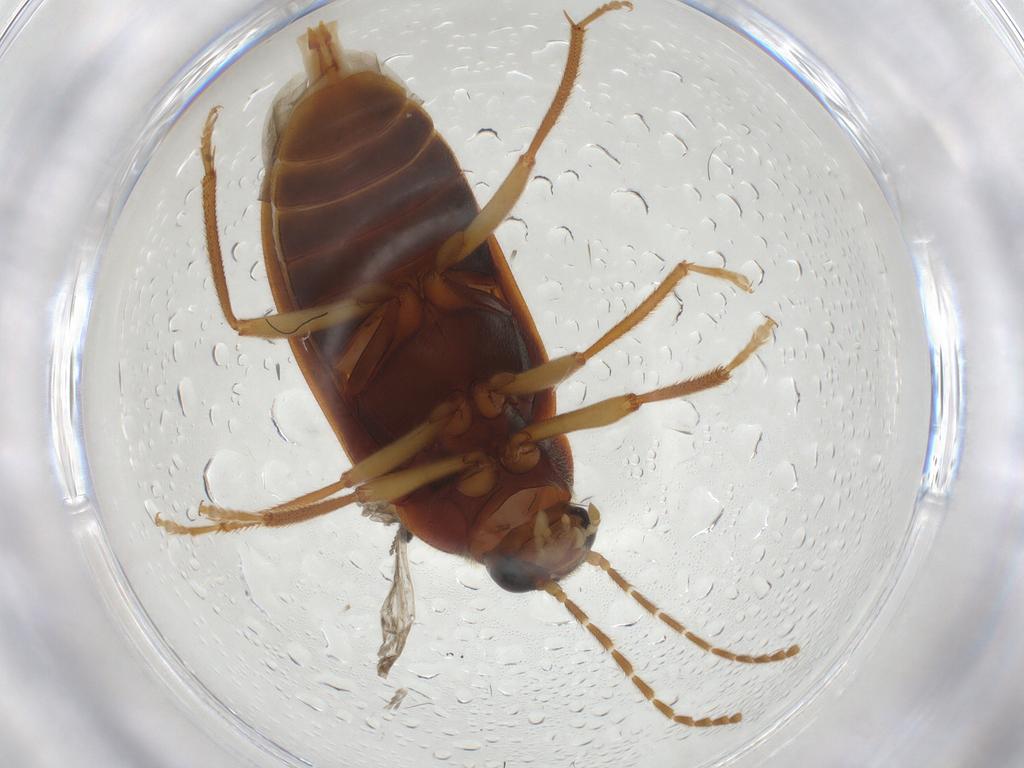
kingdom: Animalia
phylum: Arthropoda
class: Insecta
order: Coleoptera
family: Ptilodactylidae
